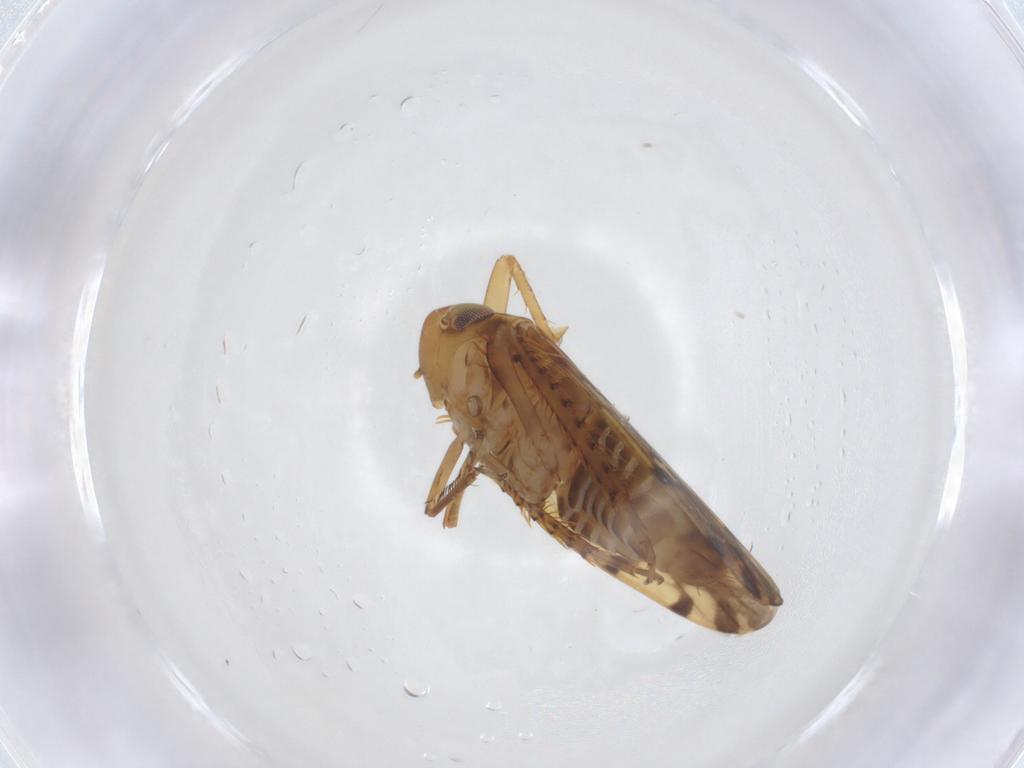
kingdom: Animalia
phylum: Arthropoda
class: Insecta
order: Hemiptera
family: Cicadellidae
